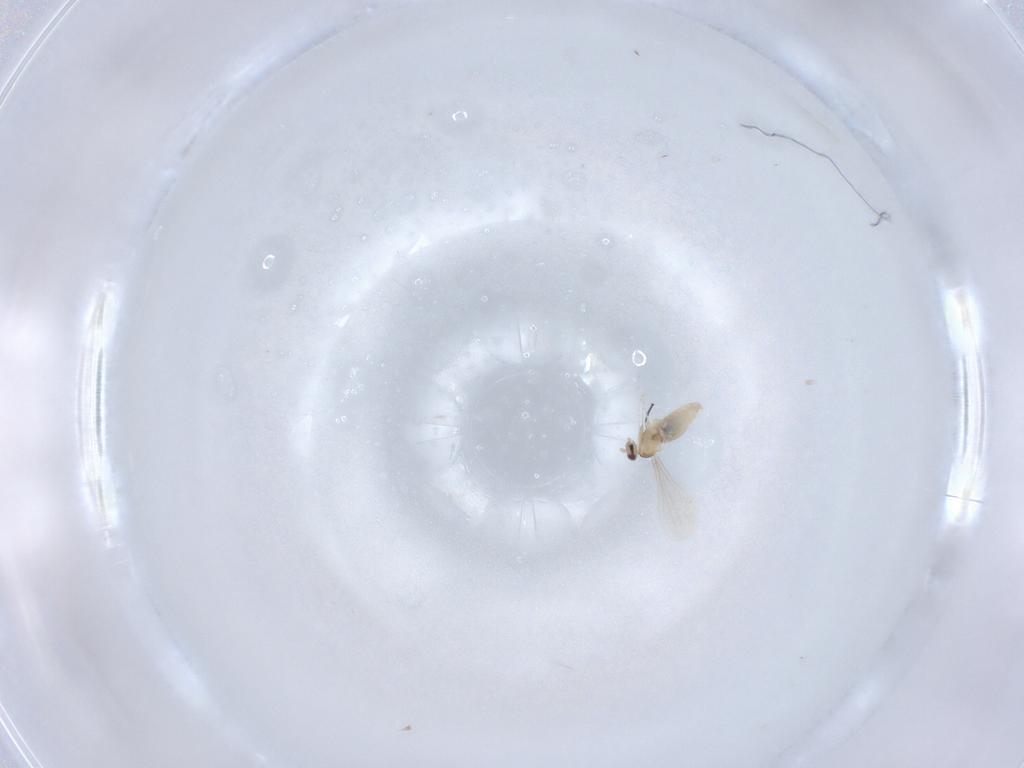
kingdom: Animalia
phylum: Arthropoda
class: Insecta
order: Diptera
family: Cecidomyiidae
